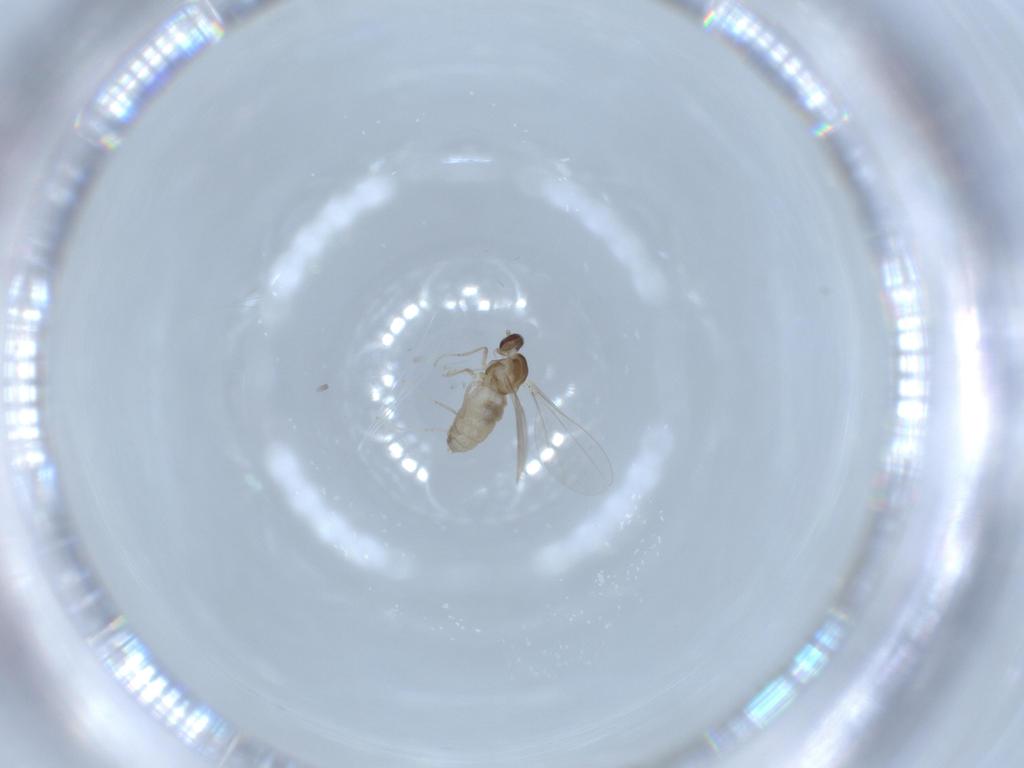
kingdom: Animalia
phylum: Arthropoda
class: Insecta
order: Diptera
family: Cecidomyiidae
